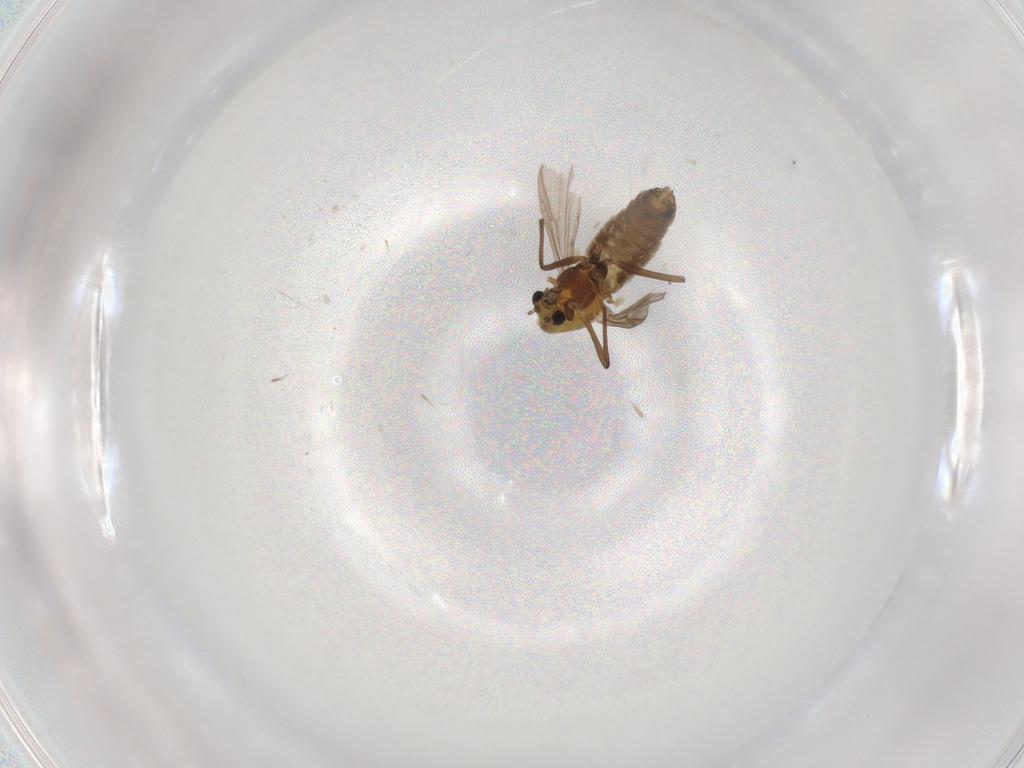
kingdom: Animalia
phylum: Arthropoda
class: Insecta
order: Diptera
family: Chironomidae
